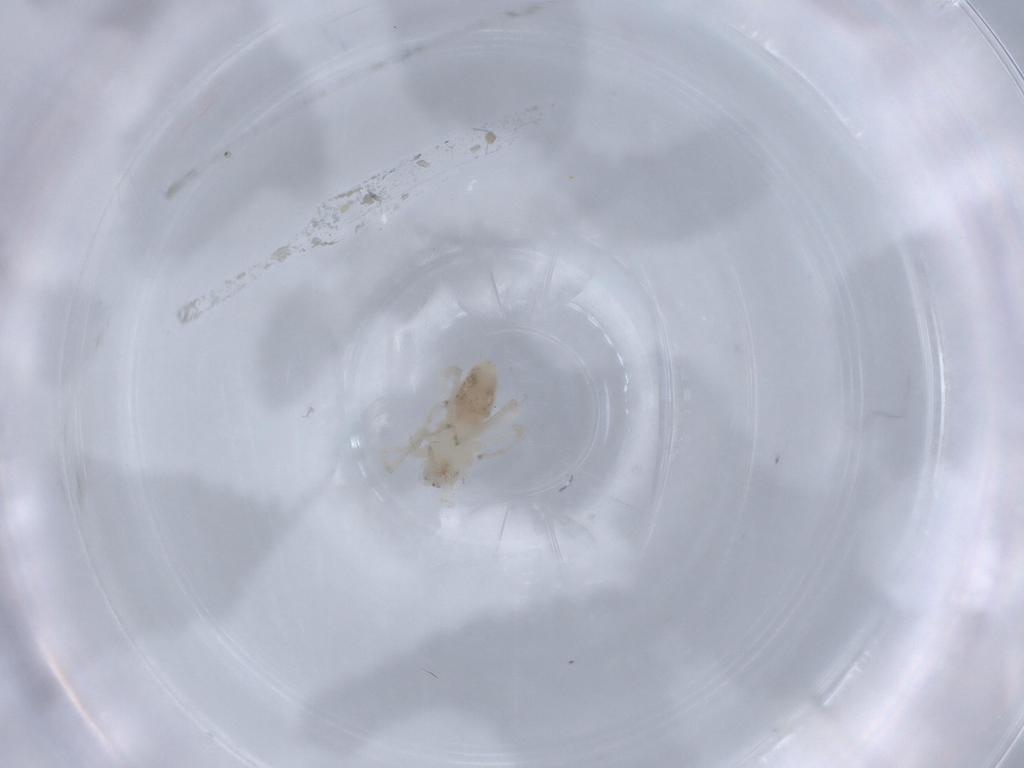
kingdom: Animalia
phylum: Arthropoda
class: Arachnida
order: Araneae
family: Anyphaenidae
